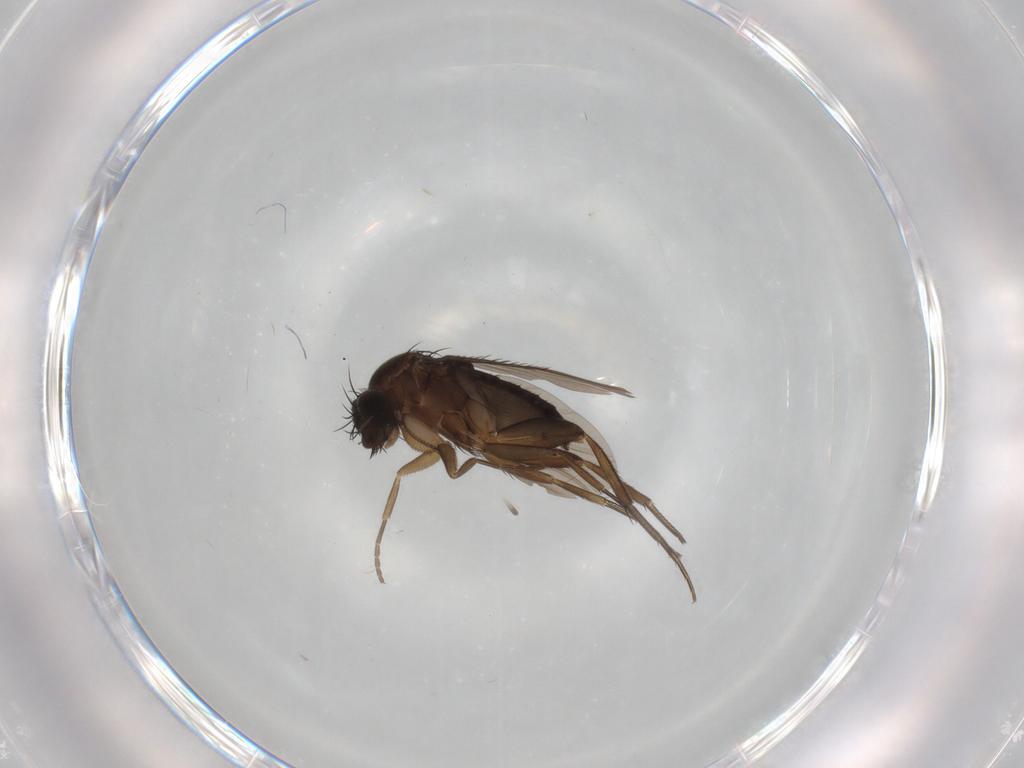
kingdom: Animalia
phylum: Arthropoda
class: Insecta
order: Diptera
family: Phoridae
